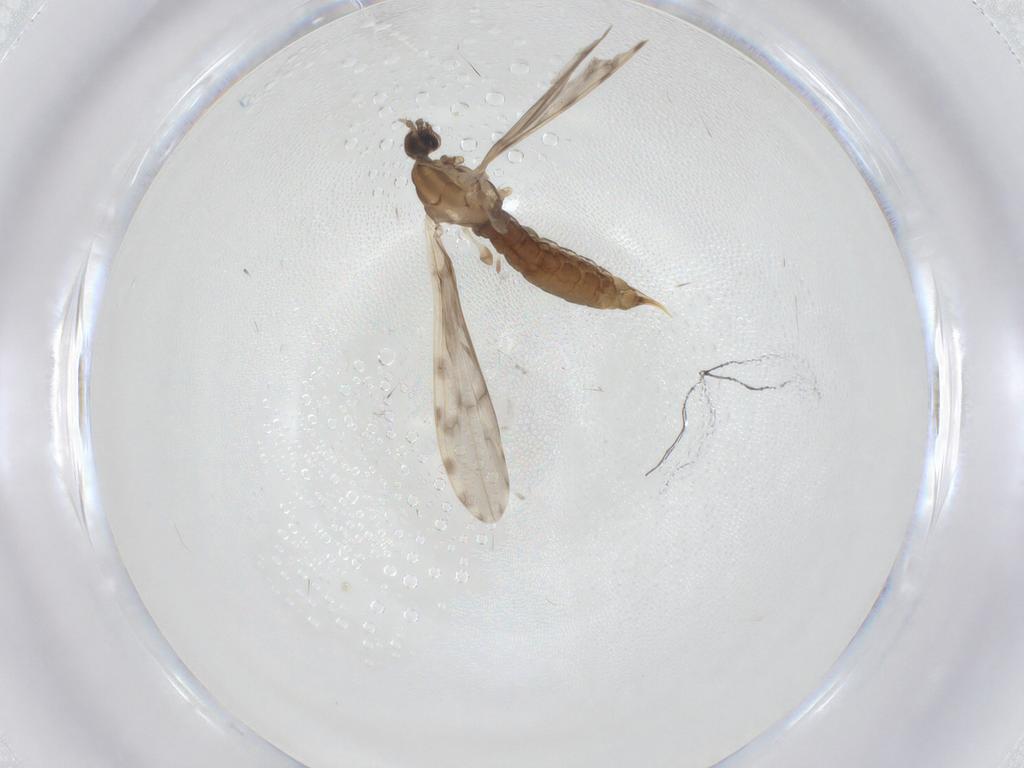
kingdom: Animalia
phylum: Arthropoda
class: Insecta
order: Diptera
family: Limoniidae
